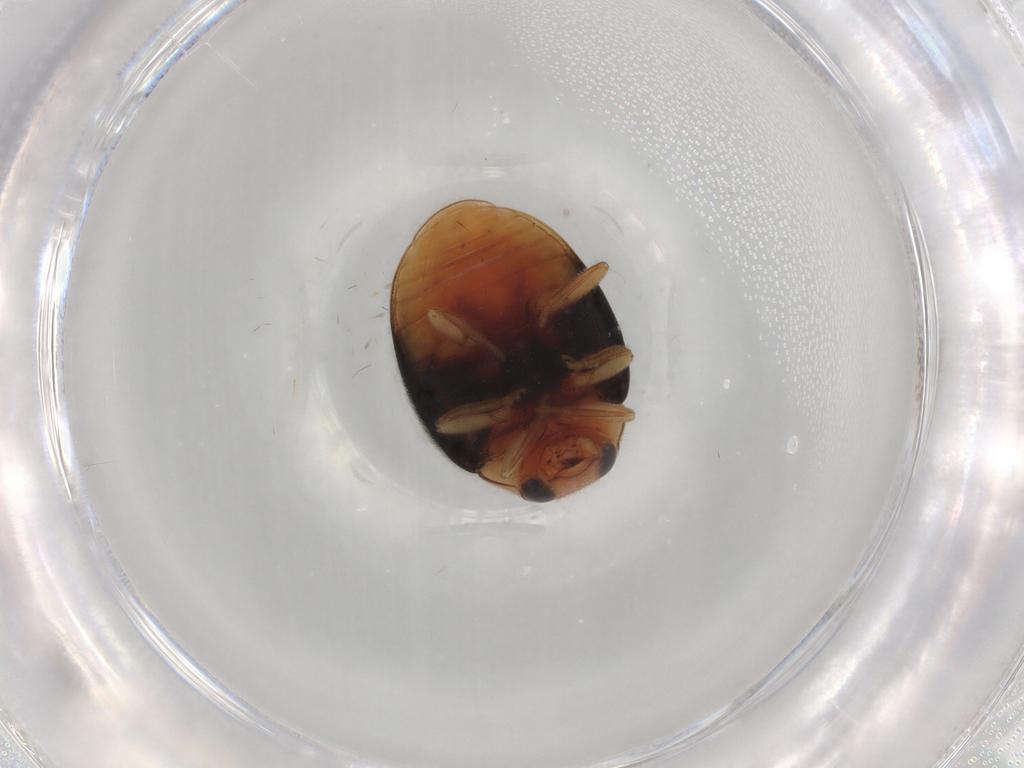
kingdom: Animalia
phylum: Arthropoda
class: Insecta
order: Coleoptera
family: Coccinellidae
